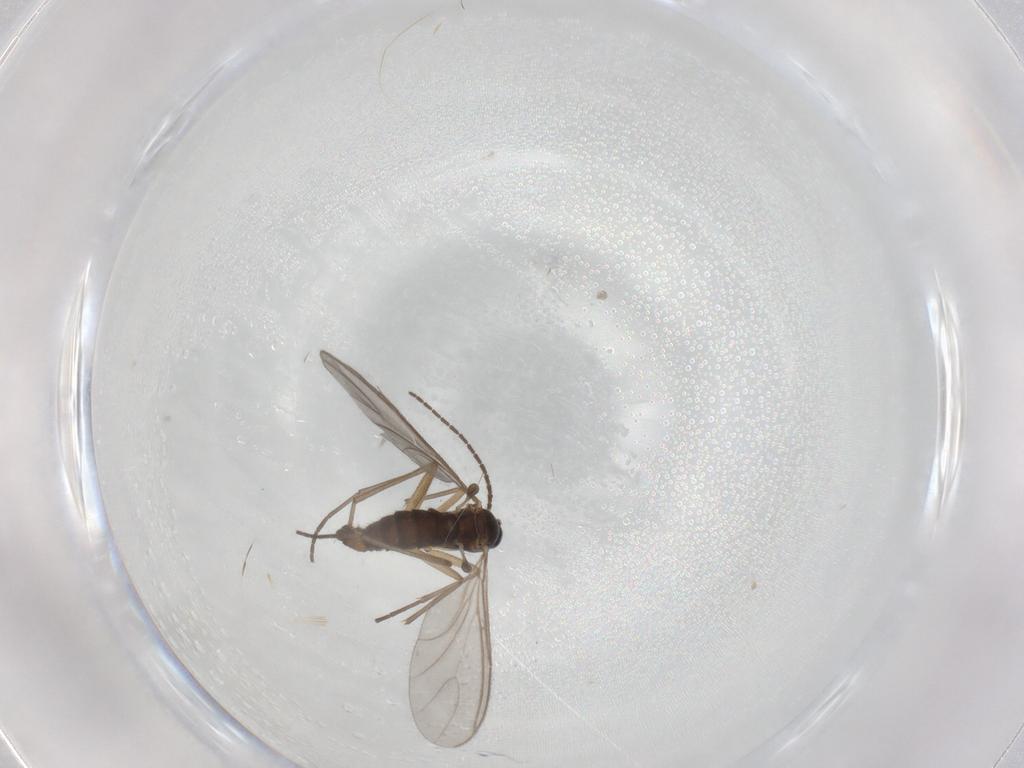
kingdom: Animalia
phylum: Arthropoda
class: Insecta
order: Diptera
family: Sciaridae
